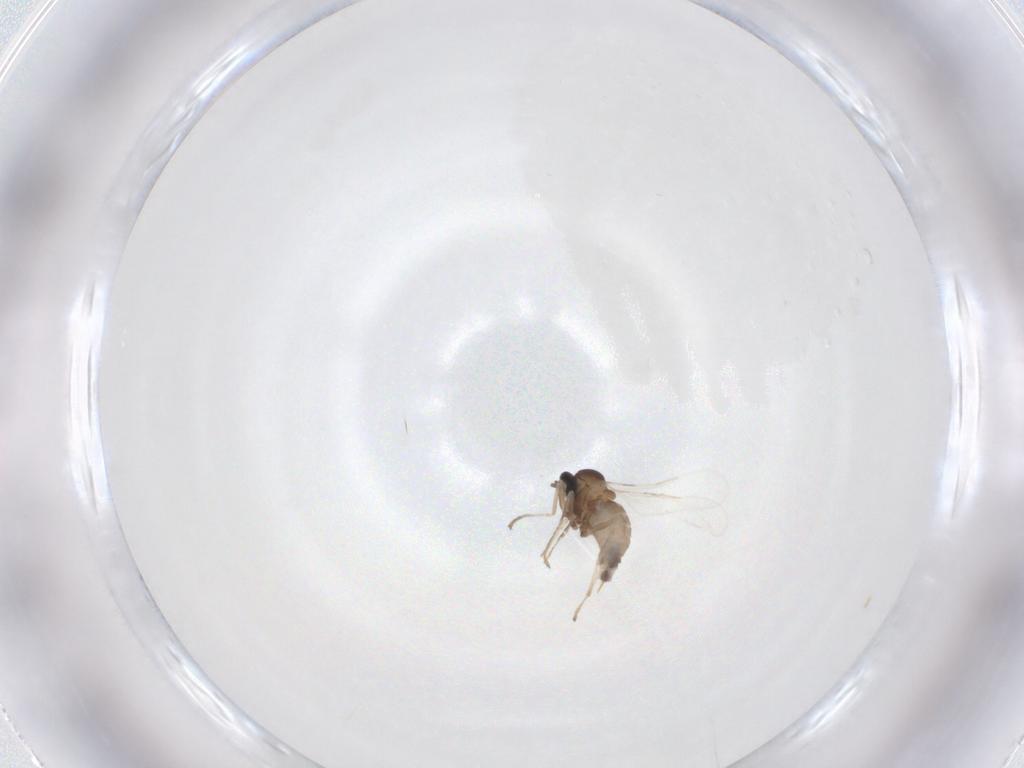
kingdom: Animalia
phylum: Arthropoda
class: Insecta
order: Diptera
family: Cecidomyiidae
